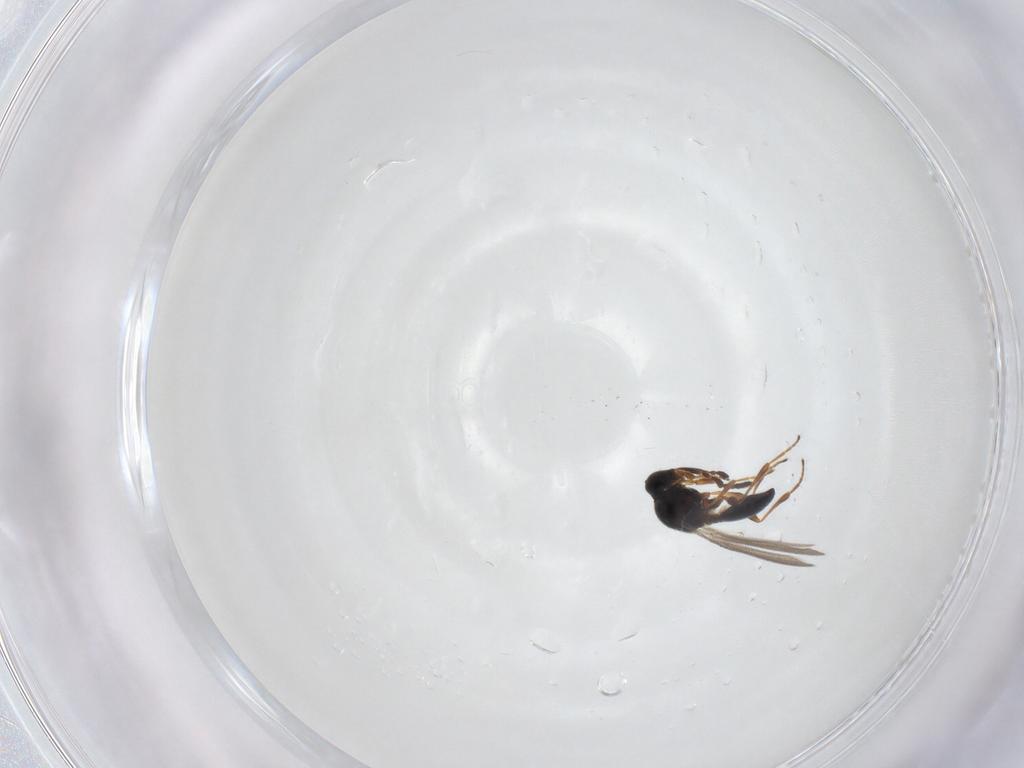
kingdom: Animalia
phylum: Arthropoda
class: Insecta
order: Hymenoptera
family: Platygastridae
